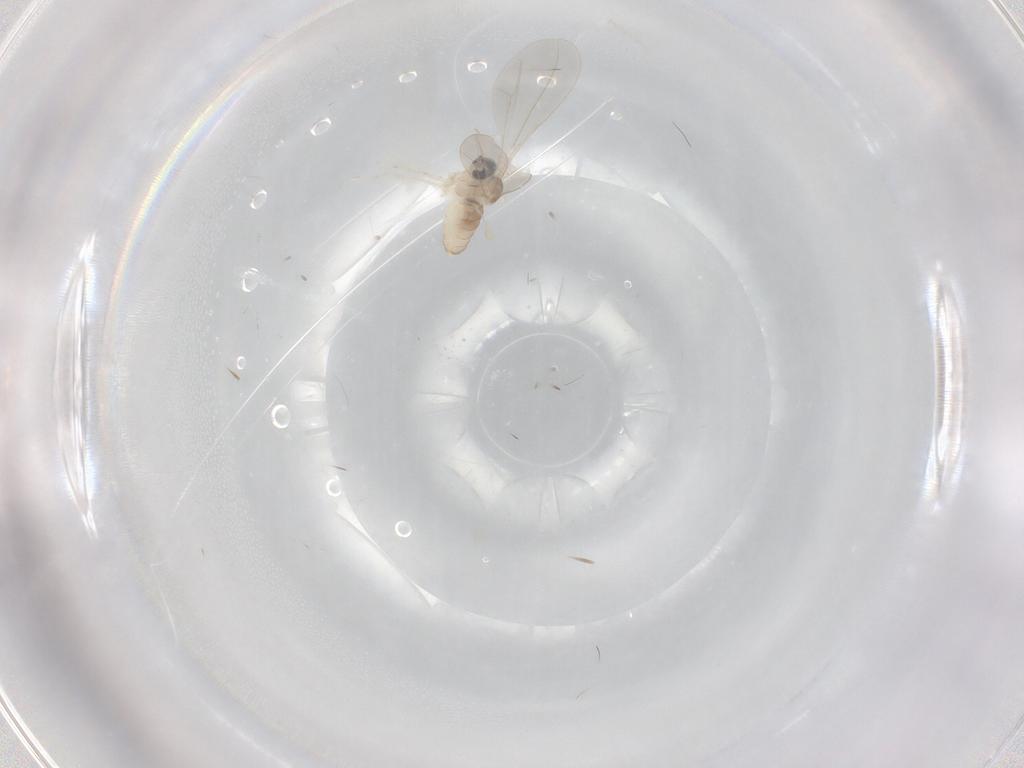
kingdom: Animalia
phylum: Arthropoda
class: Insecta
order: Diptera
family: Cecidomyiidae
